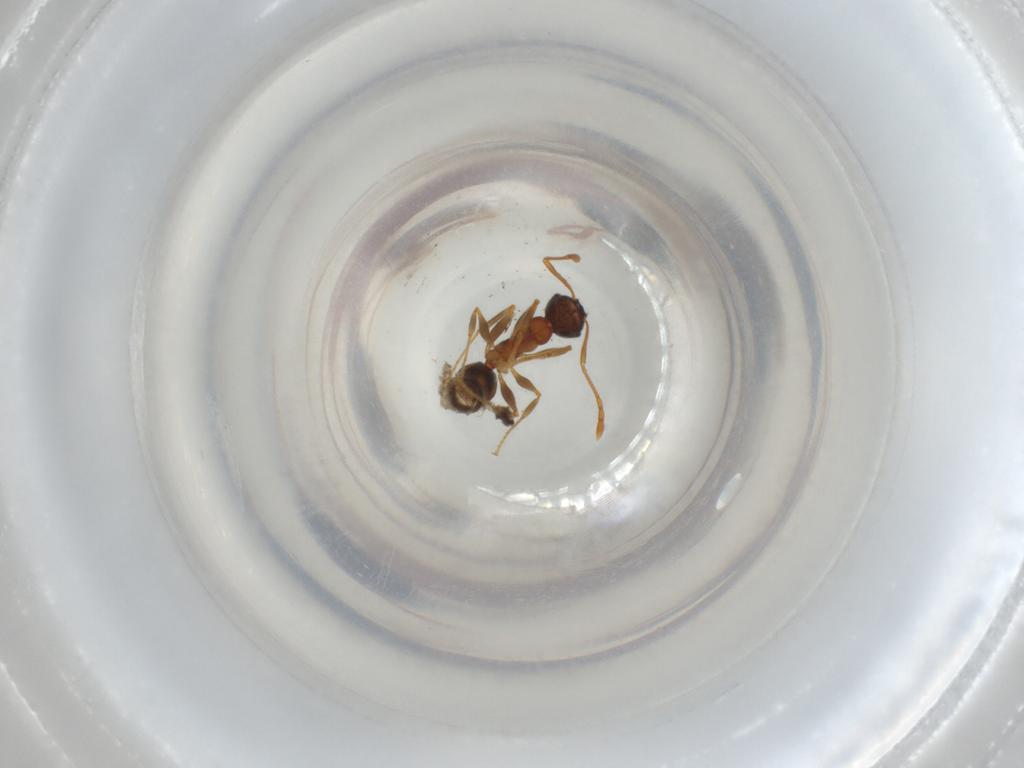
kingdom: Animalia
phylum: Arthropoda
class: Insecta
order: Hymenoptera
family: Formicidae
